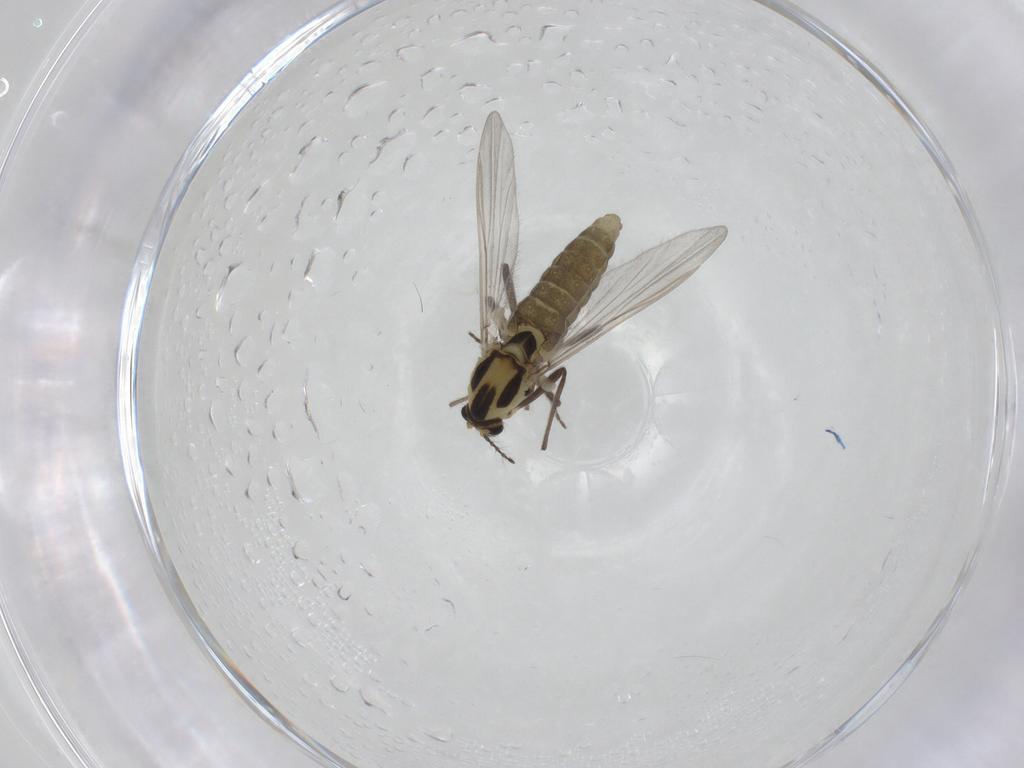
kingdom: Animalia
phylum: Arthropoda
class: Insecta
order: Diptera
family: Chironomidae
